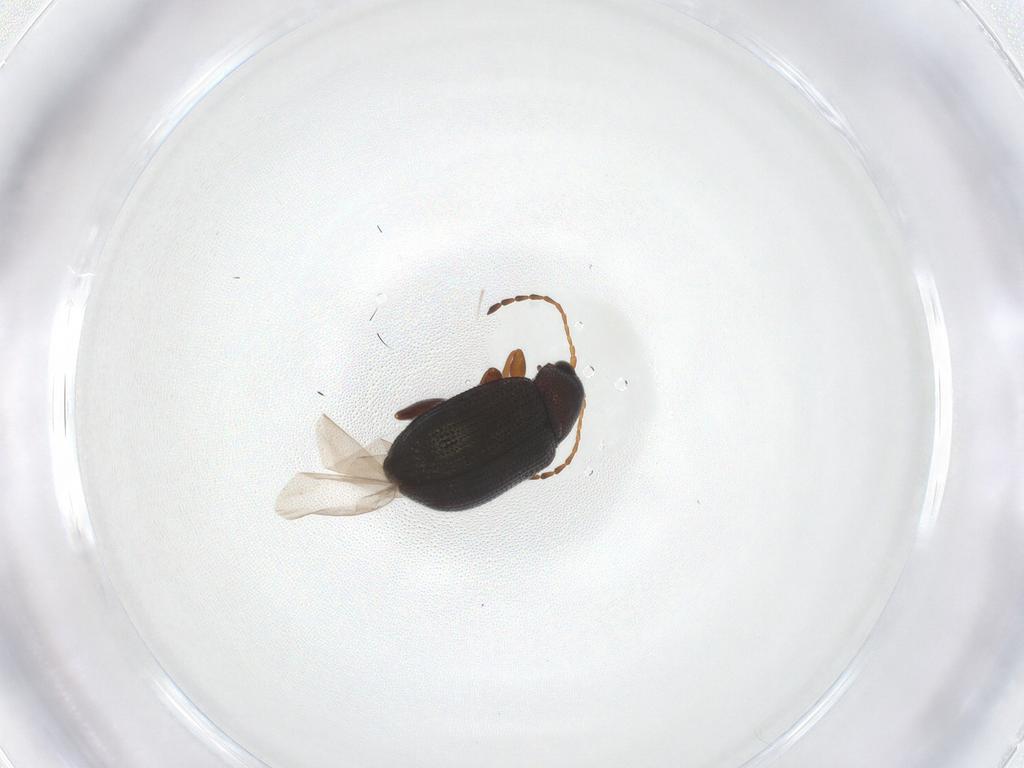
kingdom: Animalia
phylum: Arthropoda
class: Insecta
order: Coleoptera
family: Chrysomelidae
